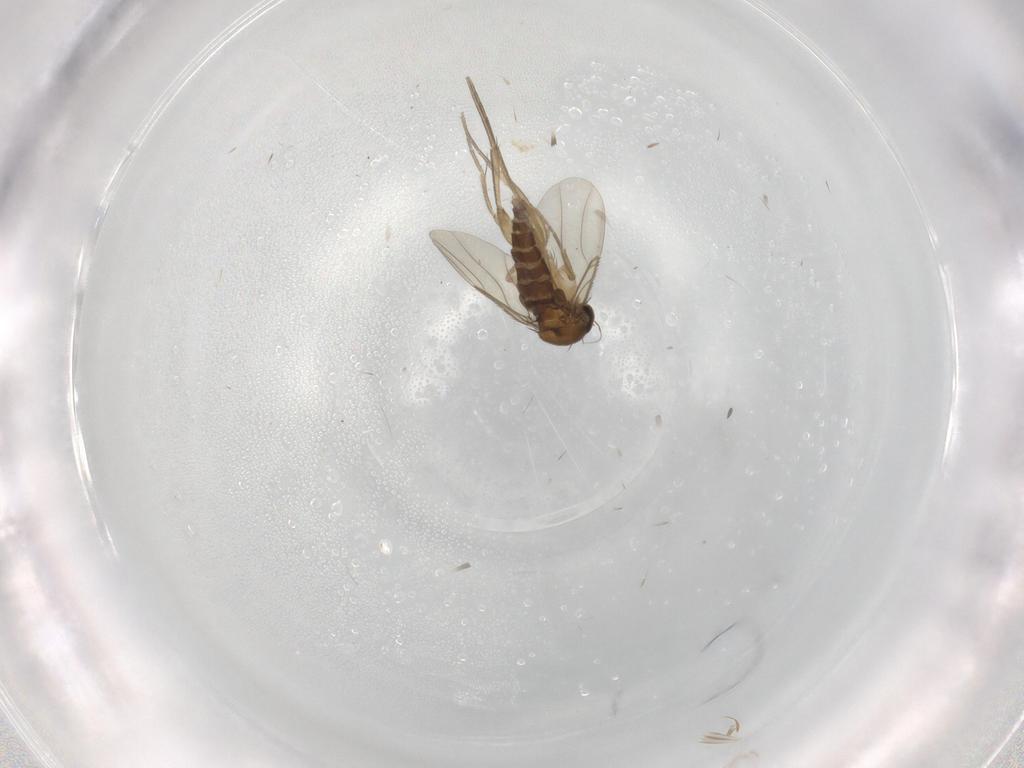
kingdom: Animalia
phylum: Arthropoda
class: Insecta
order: Diptera
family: Phoridae
